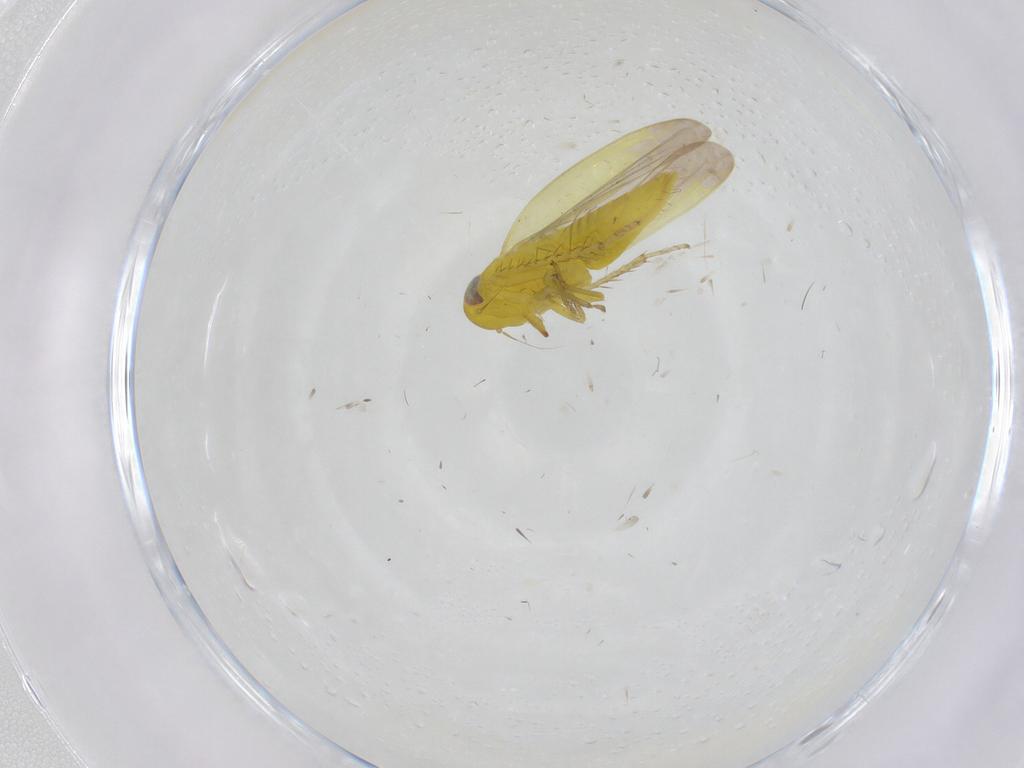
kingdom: Animalia
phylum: Arthropoda
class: Insecta
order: Hemiptera
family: Cicadellidae
